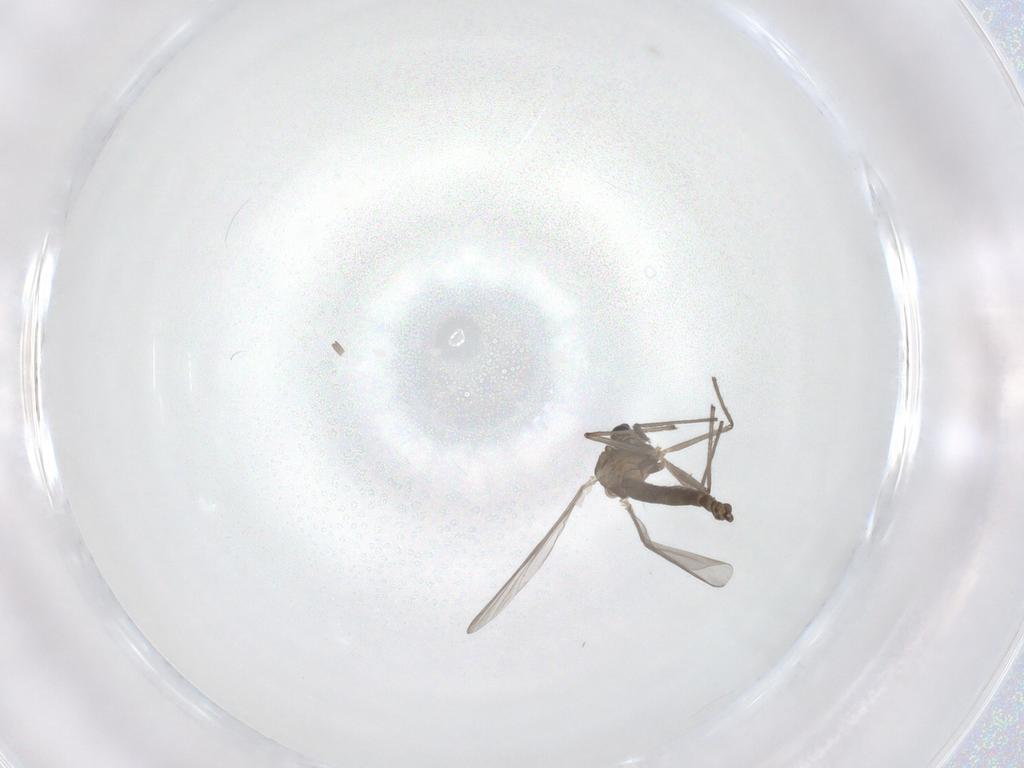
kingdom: Animalia
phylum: Arthropoda
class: Insecta
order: Diptera
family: Chironomidae
